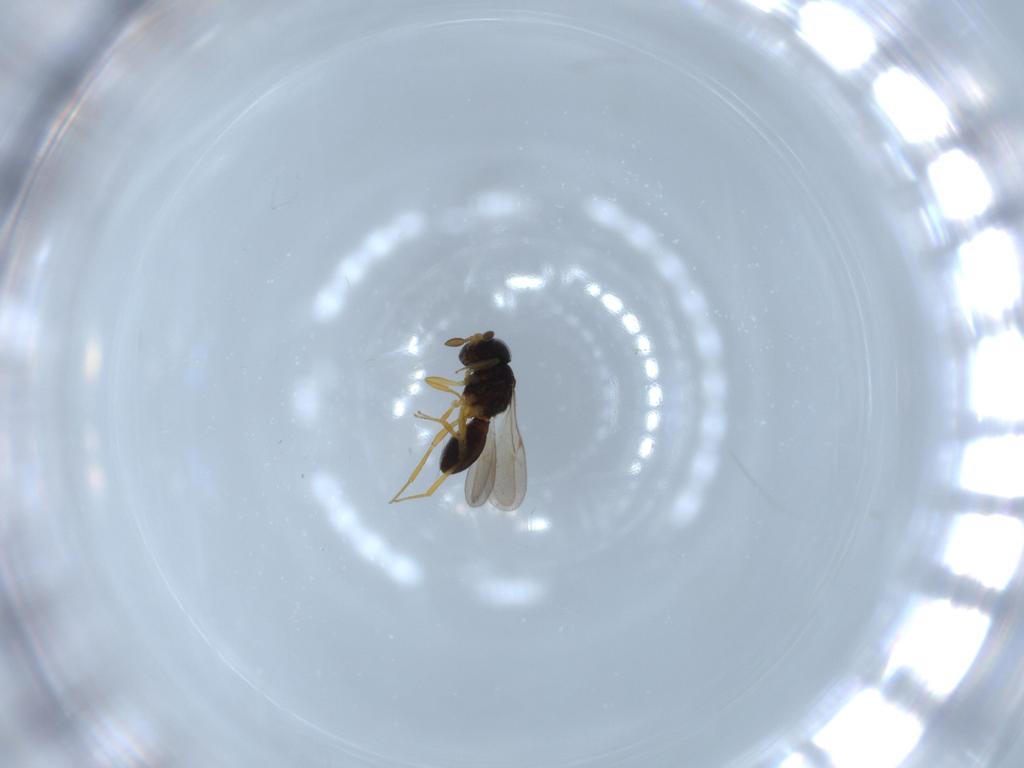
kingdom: Animalia
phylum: Arthropoda
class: Insecta
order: Hymenoptera
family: Scelionidae
